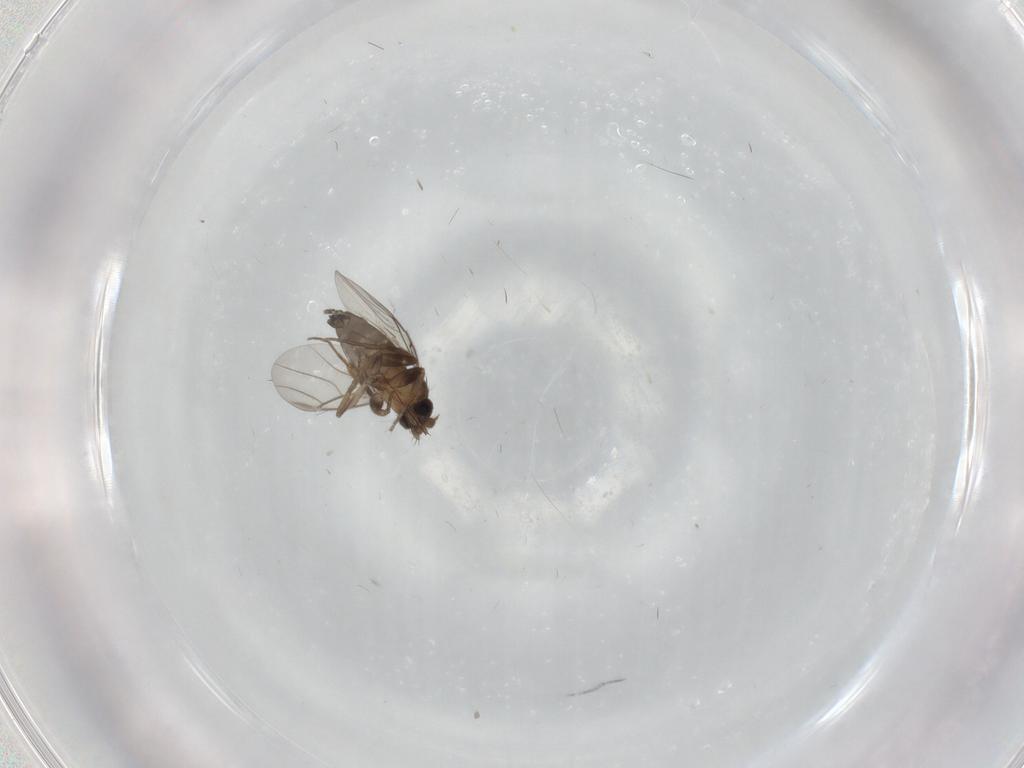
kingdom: Animalia
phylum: Arthropoda
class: Insecta
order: Diptera
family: Phoridae
